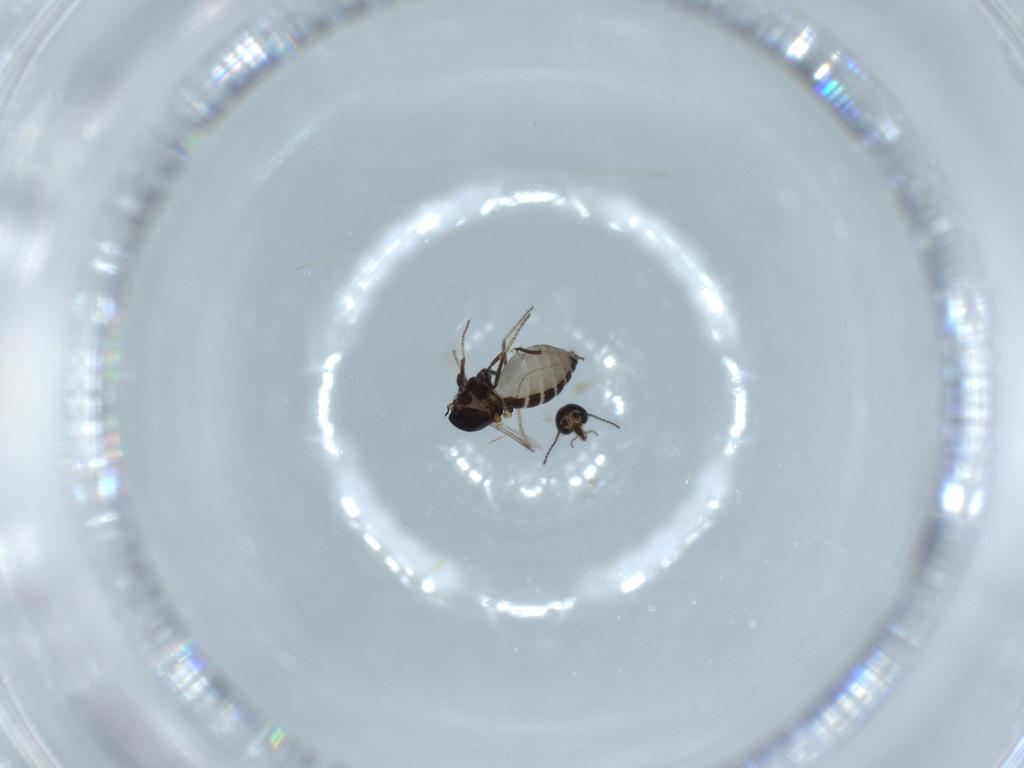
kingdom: Animalia
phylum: Arthropoda
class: Insecta
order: Diptera
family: Ceratopogonidae
